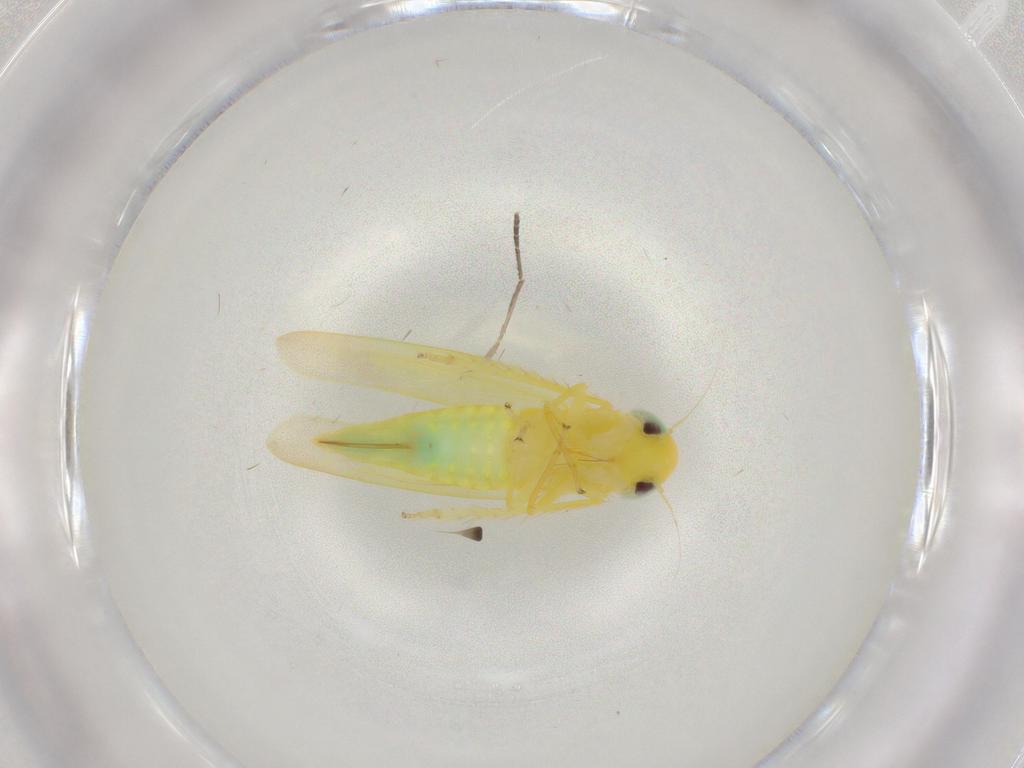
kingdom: Animalia
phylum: Arthropoda
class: Insecta
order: Hemiptera
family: Cicadellidae
